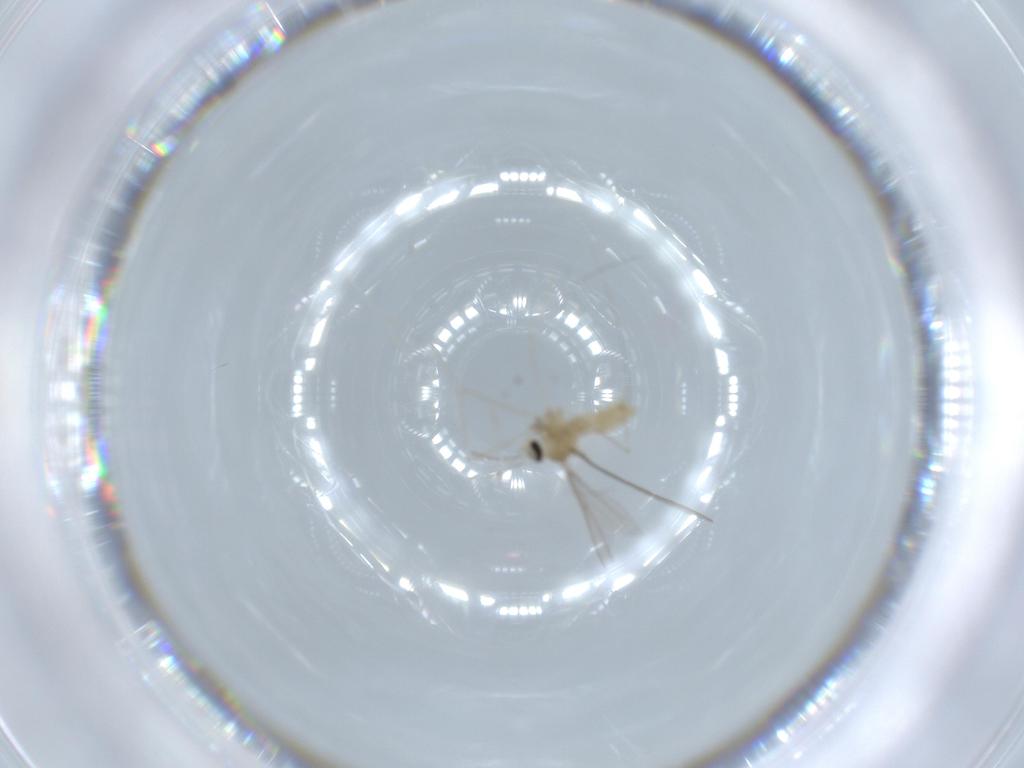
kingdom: Animalia
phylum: Arthropoda
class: Insecta
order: Diptera
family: Cecidomyiidae
